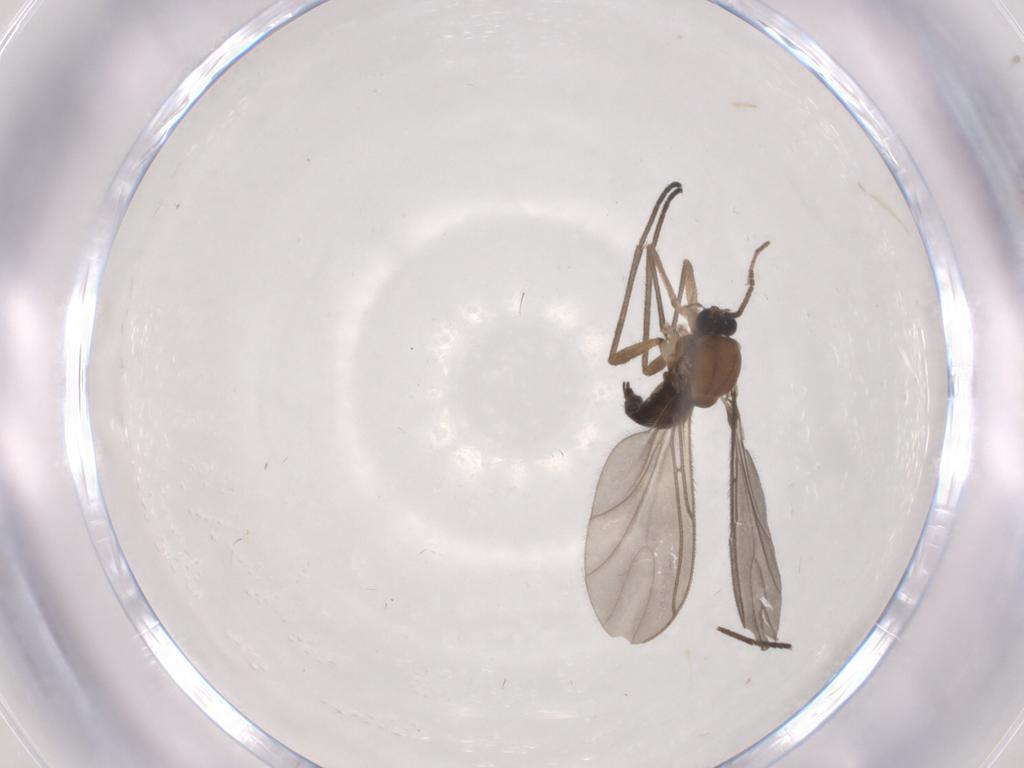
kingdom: Animalia
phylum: Arthropoda
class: Insecta
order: Diptera
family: Sciaridae
